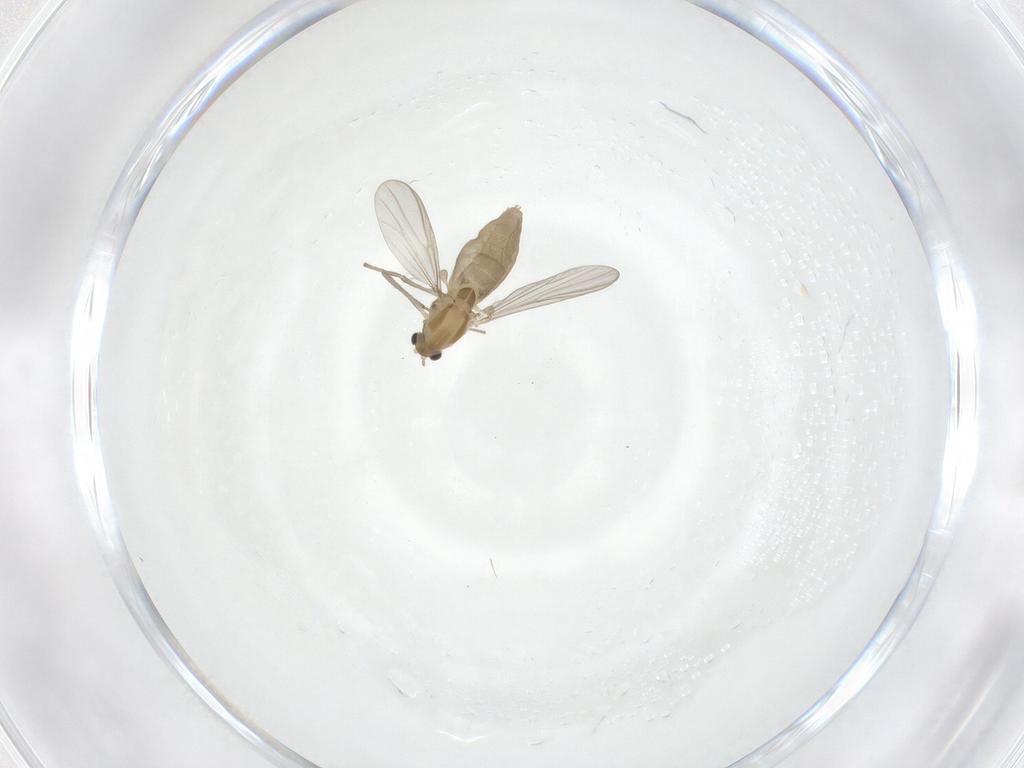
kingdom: Animalia
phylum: Arthropoda
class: Insecta
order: Diptera
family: Chironomidae
